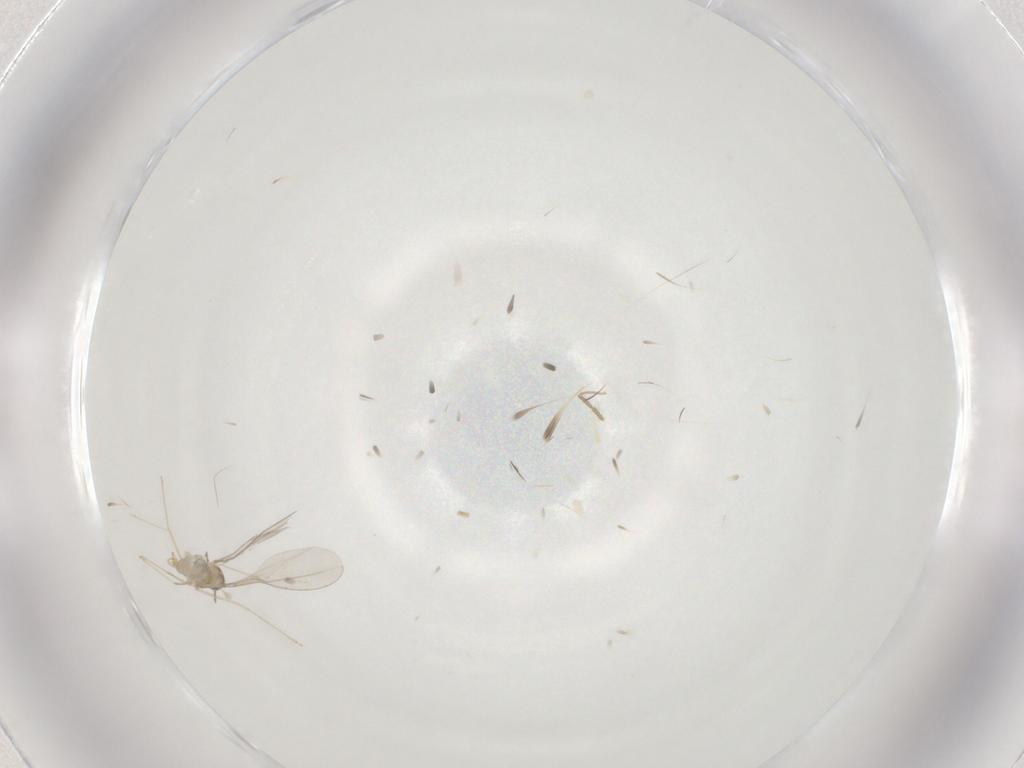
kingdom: Animalia
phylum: Arthropoda
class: Insecta
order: Diptera
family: Cecidomyiidae
